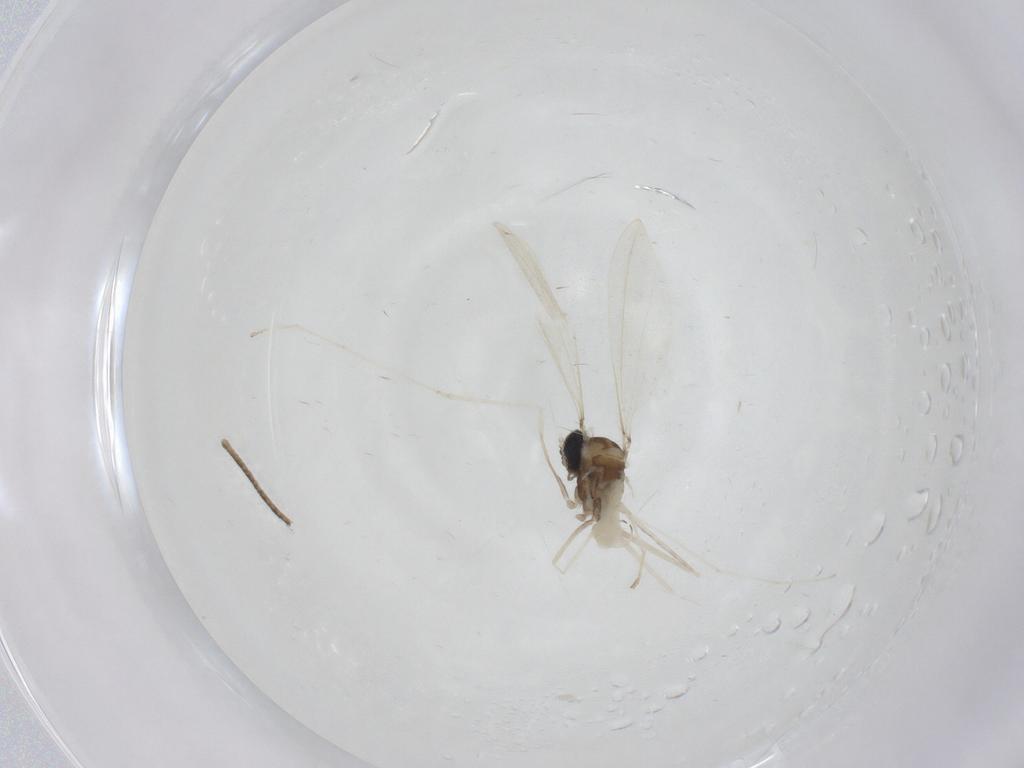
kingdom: Animalia
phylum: Arthropoda
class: Insecta
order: Diptera
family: Cecidomyiidae
